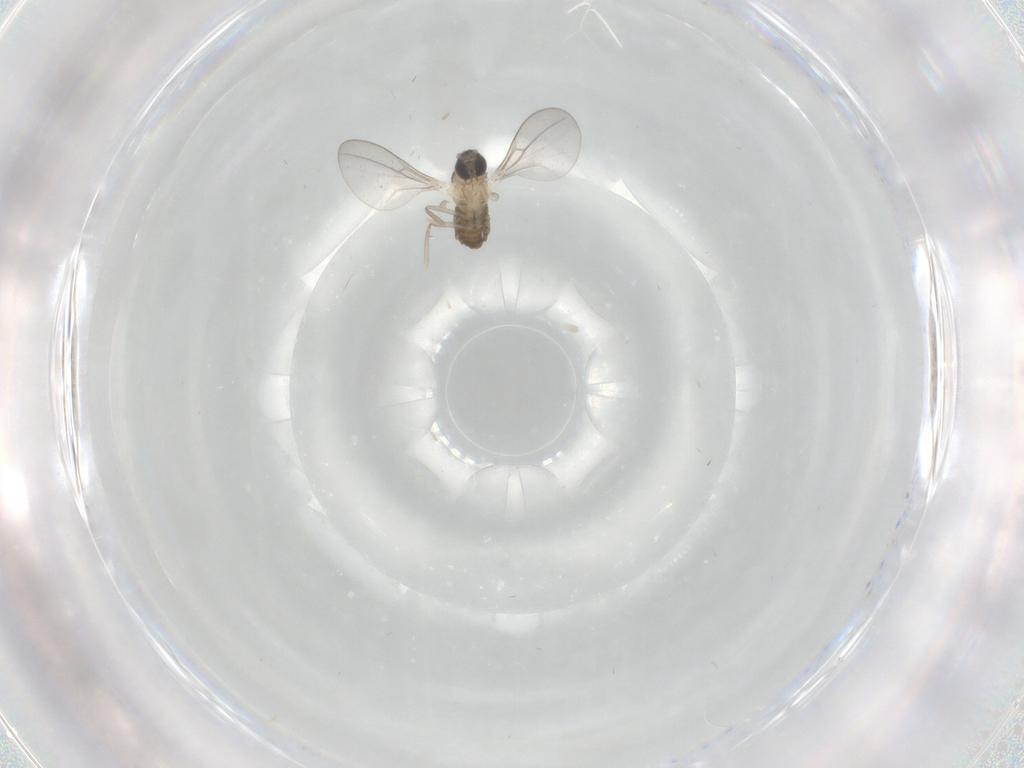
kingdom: Animalia
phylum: Arthropoda
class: Insecta
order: Diptera
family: Cecidomyiidae
